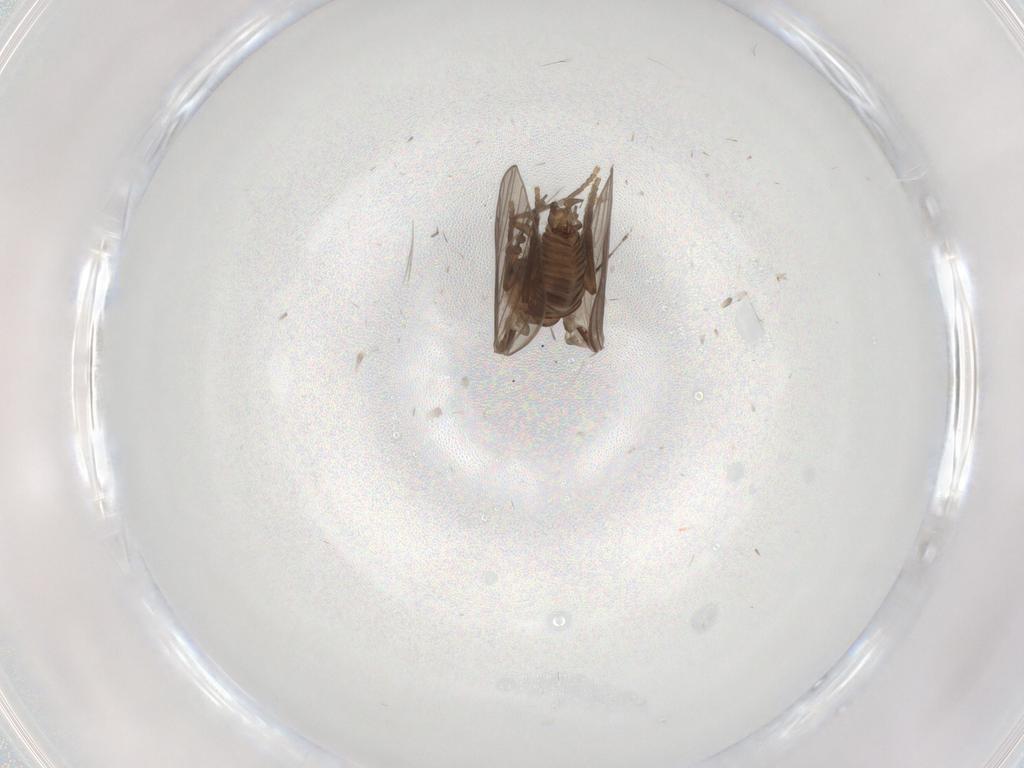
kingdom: Animalia
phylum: Arthropoda
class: Insecta
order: Diptera
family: Psychodidae
